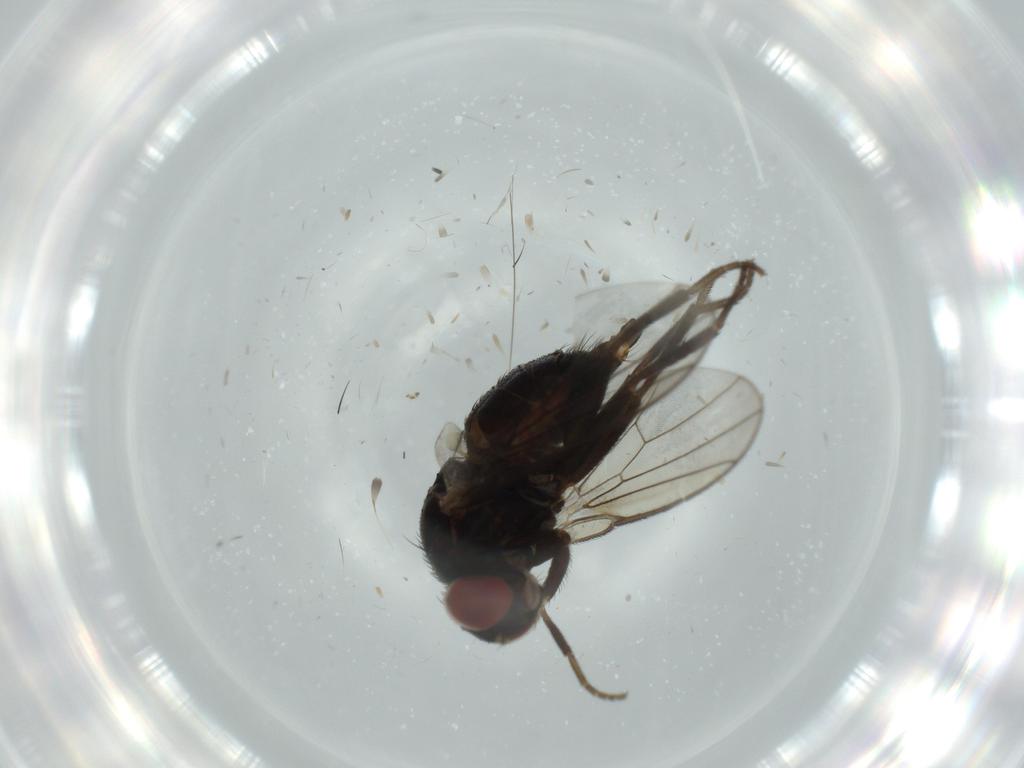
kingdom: Animalia
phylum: Arthropoda
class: Insecta
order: Diptera
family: Agromyzidae
